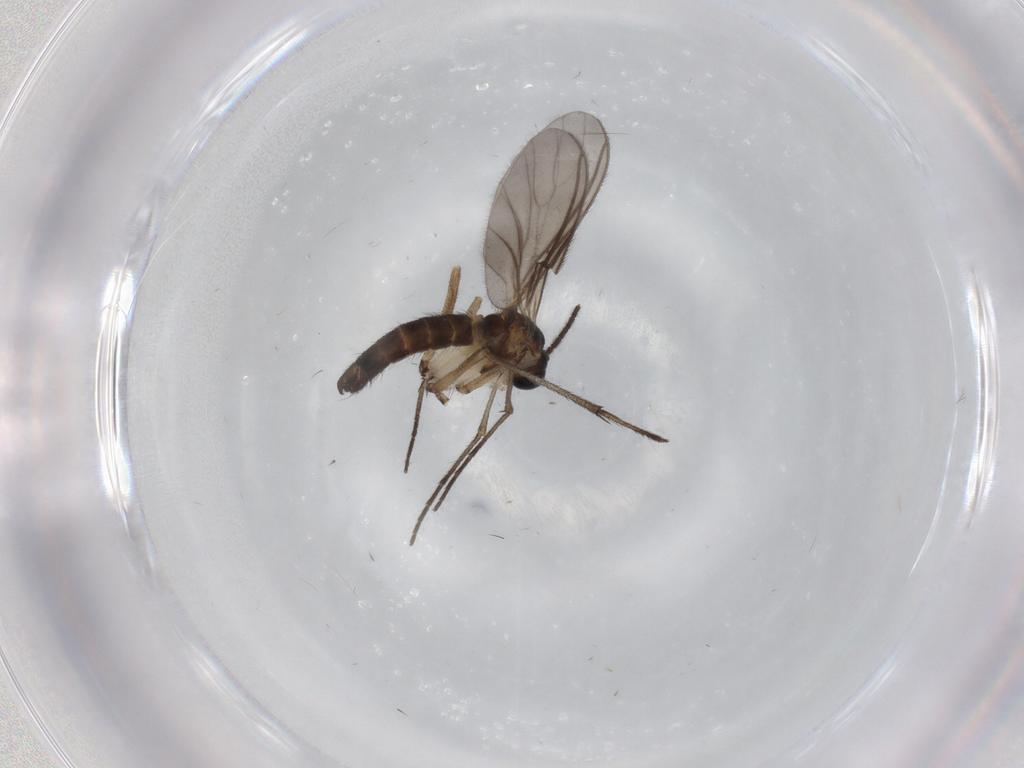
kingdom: Animalia
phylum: Arthropoda
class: Insecta
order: Diptera
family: Sciaridae
